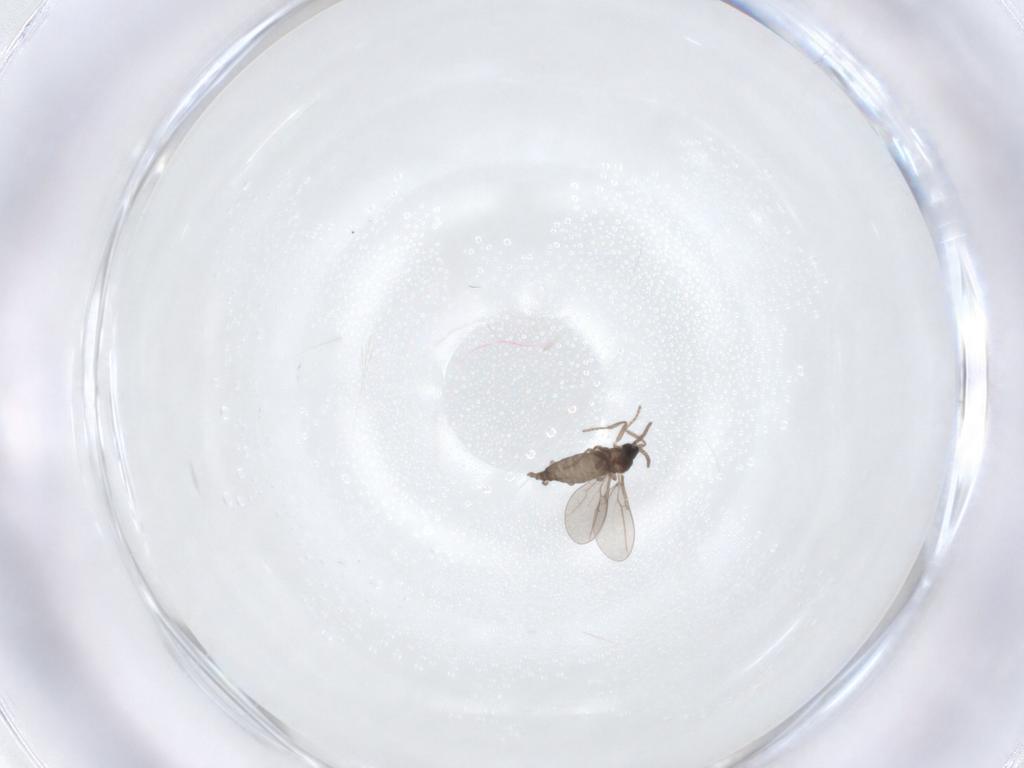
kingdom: Animalia
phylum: Arthropoda
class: Insecta
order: Diptera
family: Cecidomyiidae
